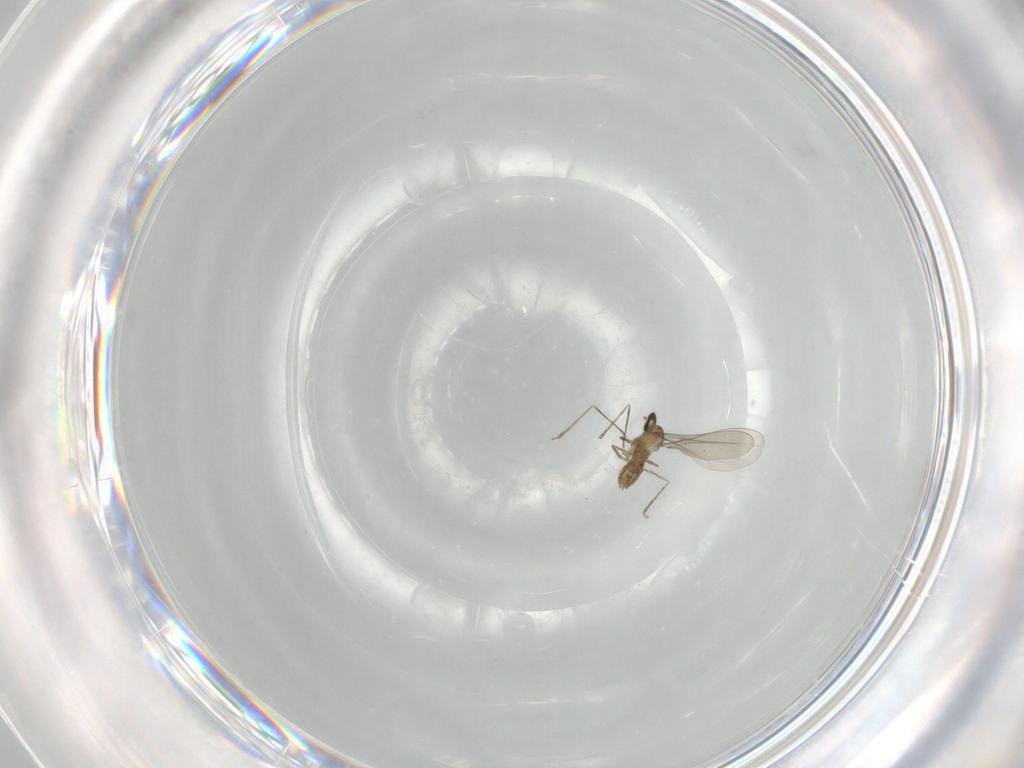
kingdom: Animalia
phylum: Arthropoda
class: Insecta
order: Diptera
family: Cecidomyiidae
